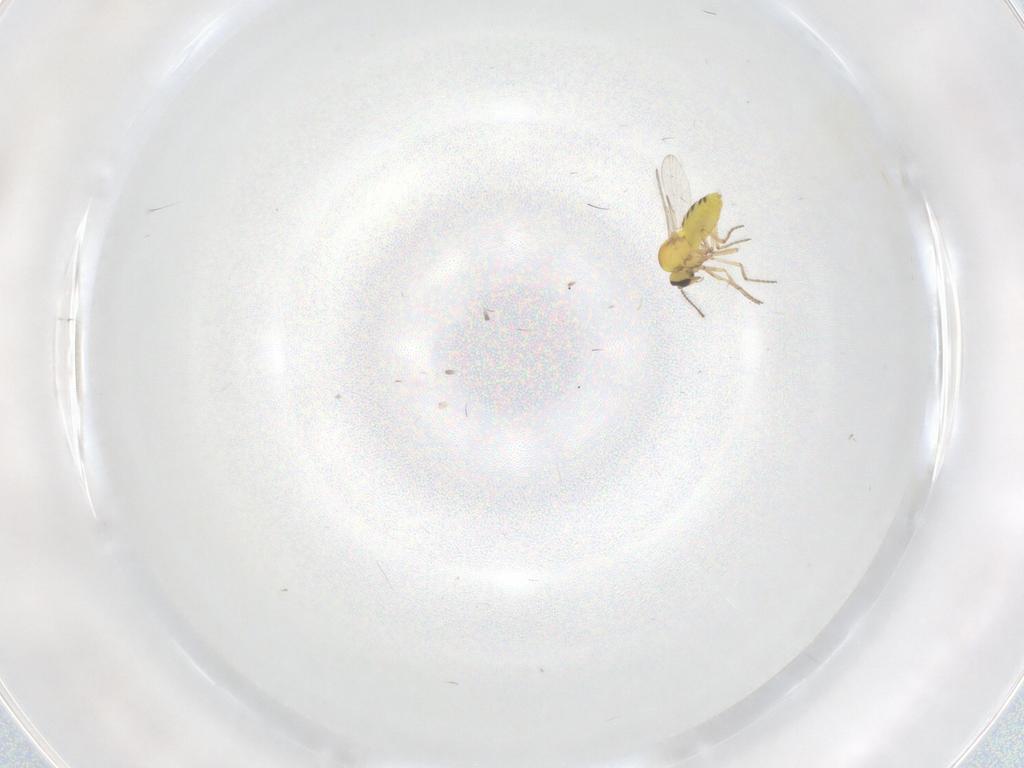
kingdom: Animalia
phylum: Arthropoda
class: Insecta
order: Diptera
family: Ceratopogonidae
